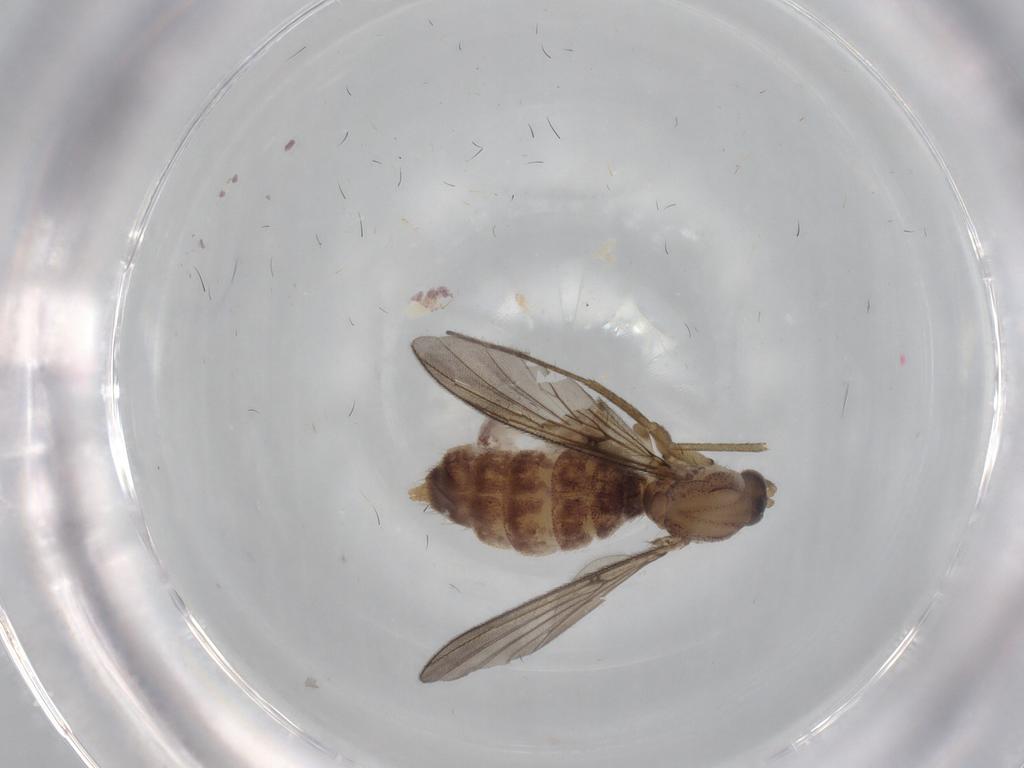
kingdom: Animalia
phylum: Arthropoda
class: Insecta
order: Diptera
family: Mycetophilidae
